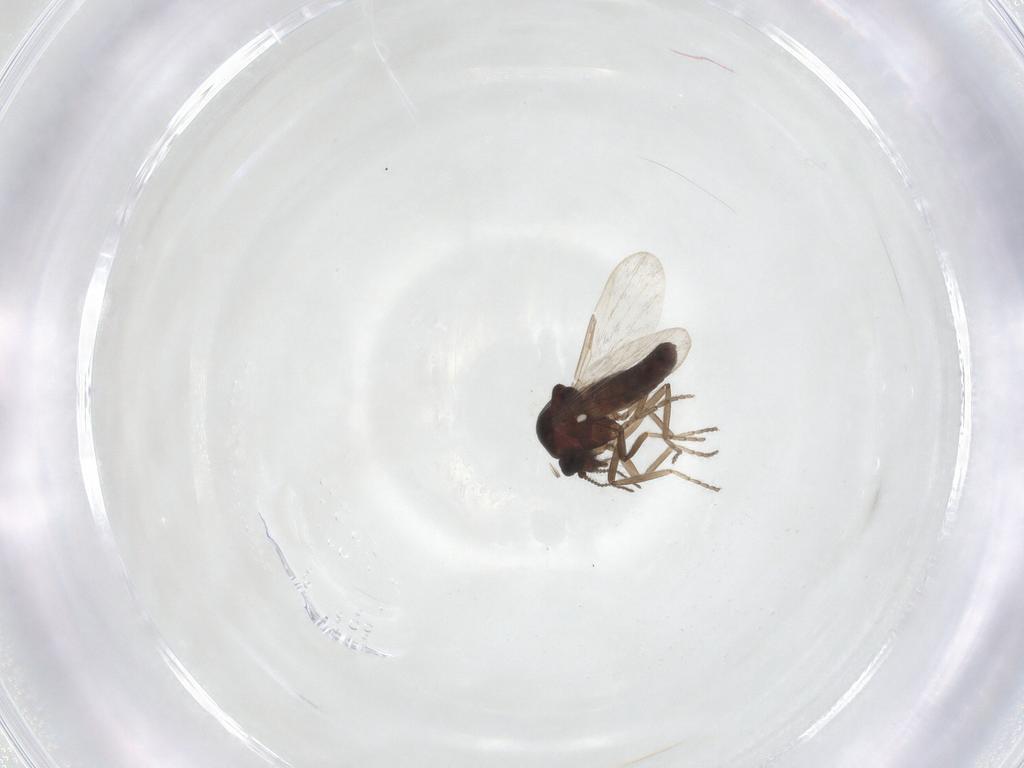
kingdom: Animalia
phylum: Arthropoda
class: Insecta
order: Diptera
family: Ceratopogonidae
